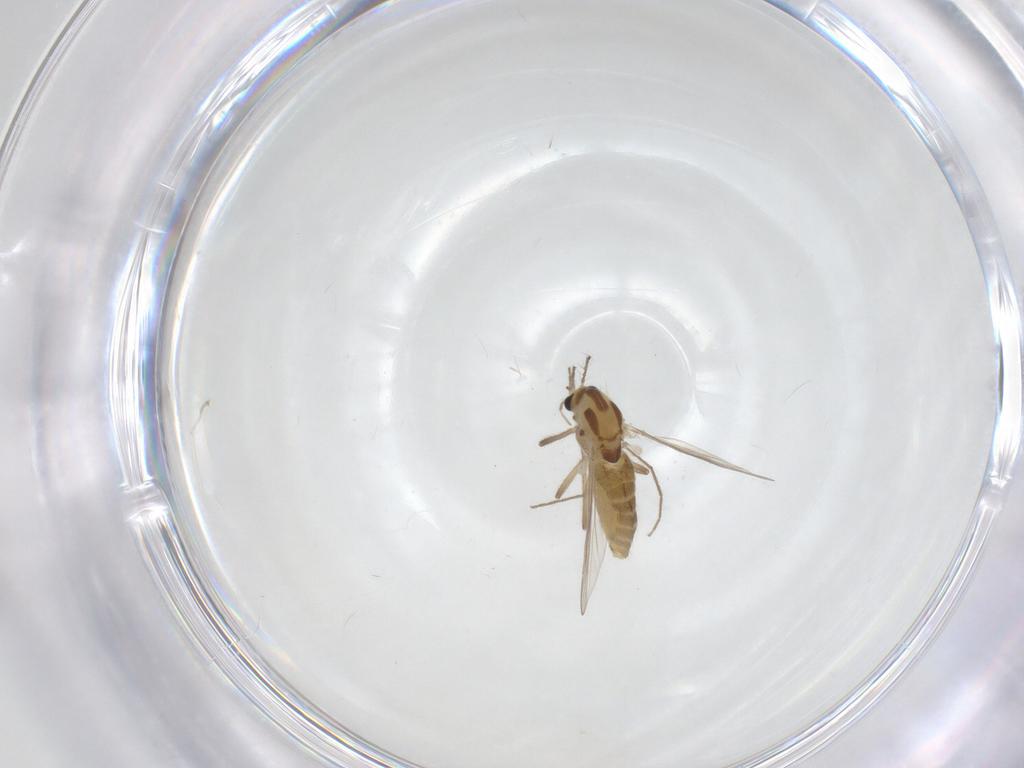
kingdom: Animalia
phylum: Arthropoda
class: Insecta
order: Diptera
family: Chironomidae
